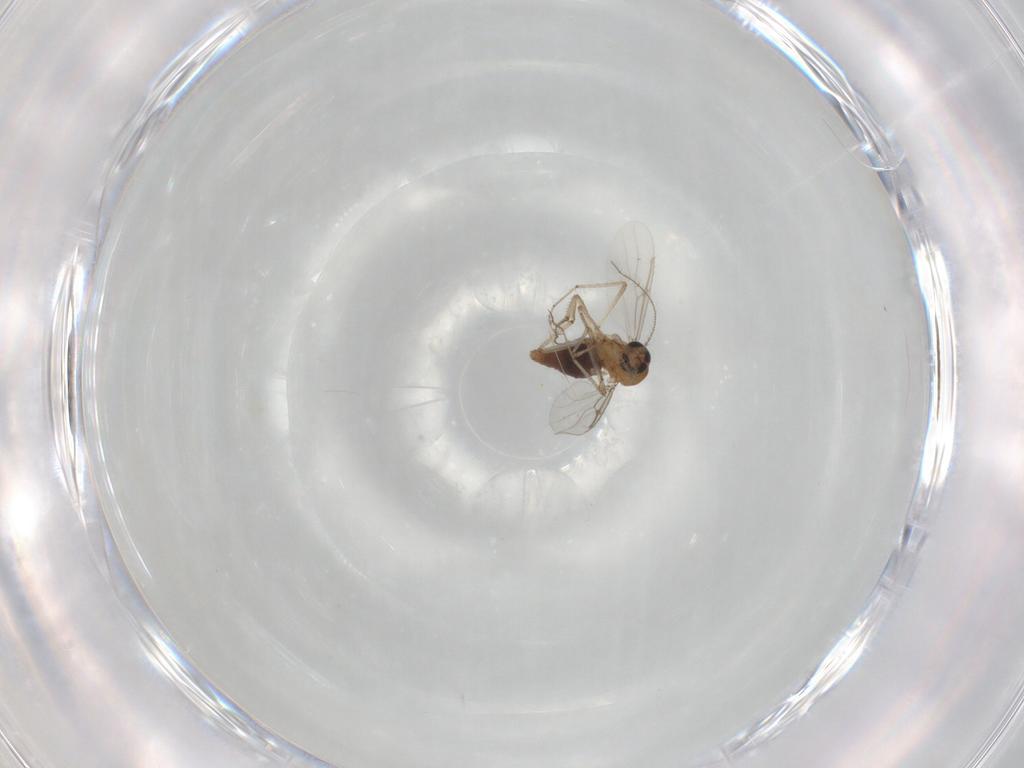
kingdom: Animalia
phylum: Arthropoda
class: Insecta
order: Diptera
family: Chironomidae
